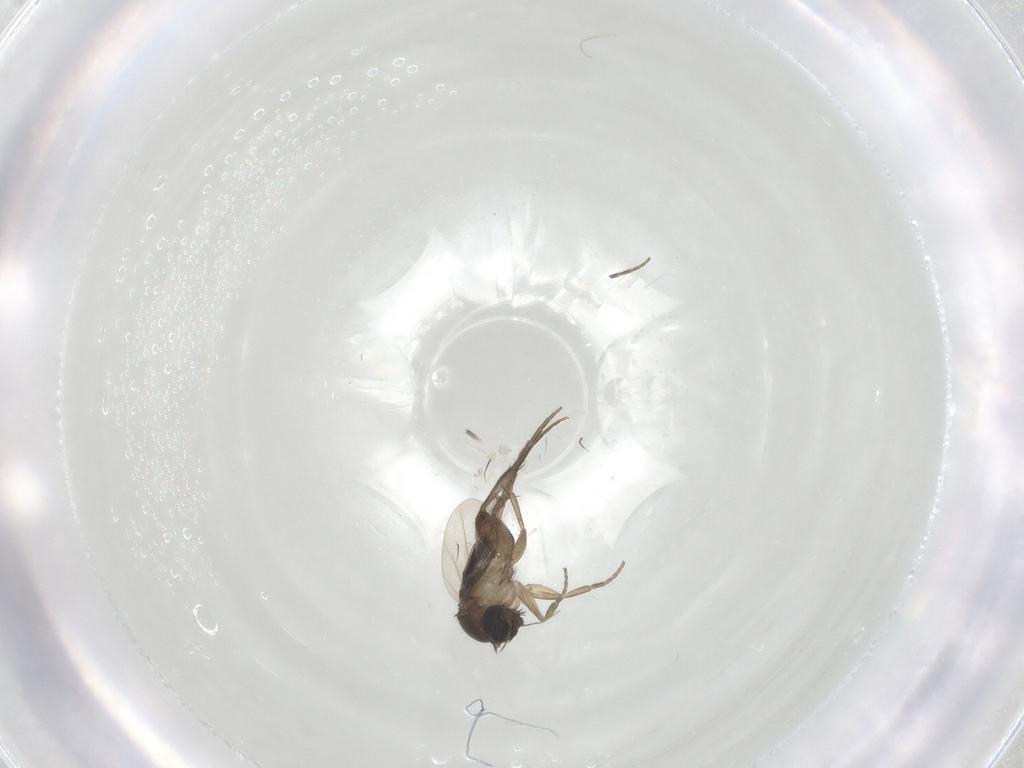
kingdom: Animalia
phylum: Arthropoda
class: Insecta
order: Diptera
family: Phoridae
